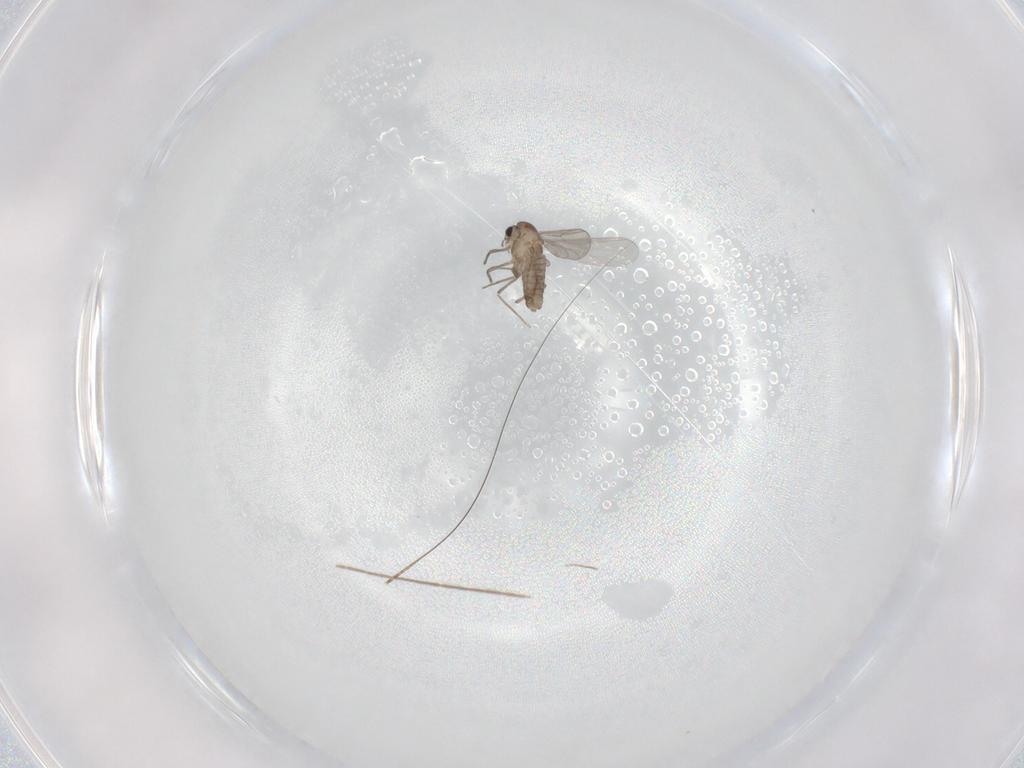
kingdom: Animalia
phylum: Arthropoda
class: Insecta
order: Diptera
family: Chironomidae
